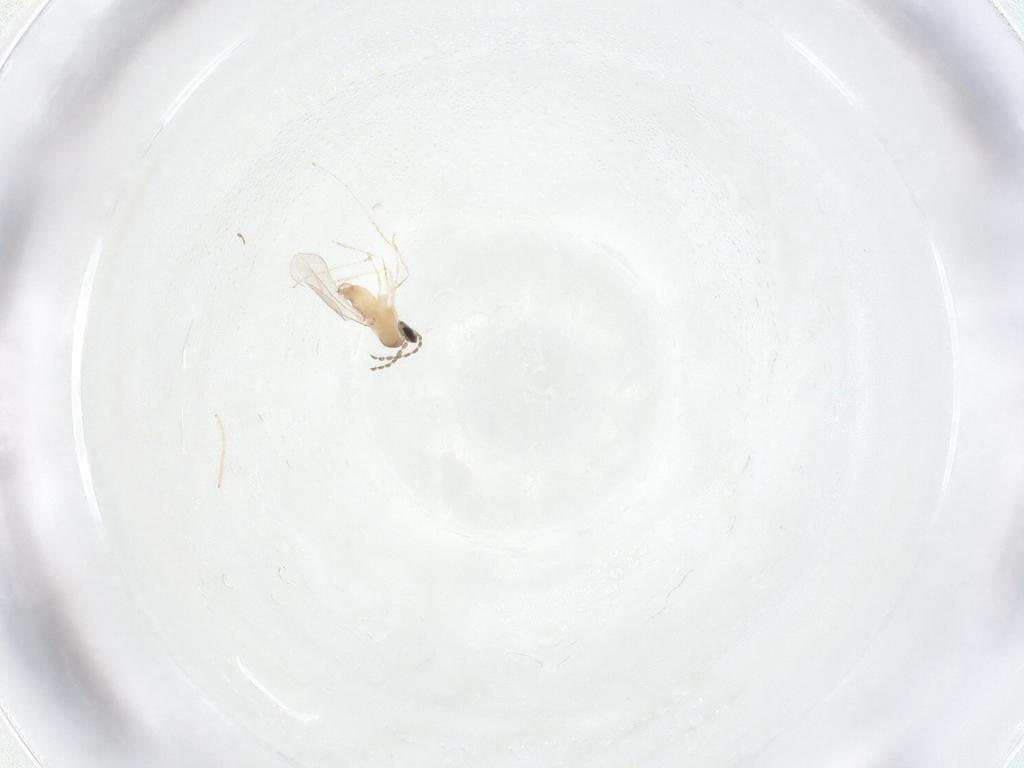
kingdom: Animalia
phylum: Arthropoda
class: Insecta
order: Diptera
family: Cecidomyiidae
